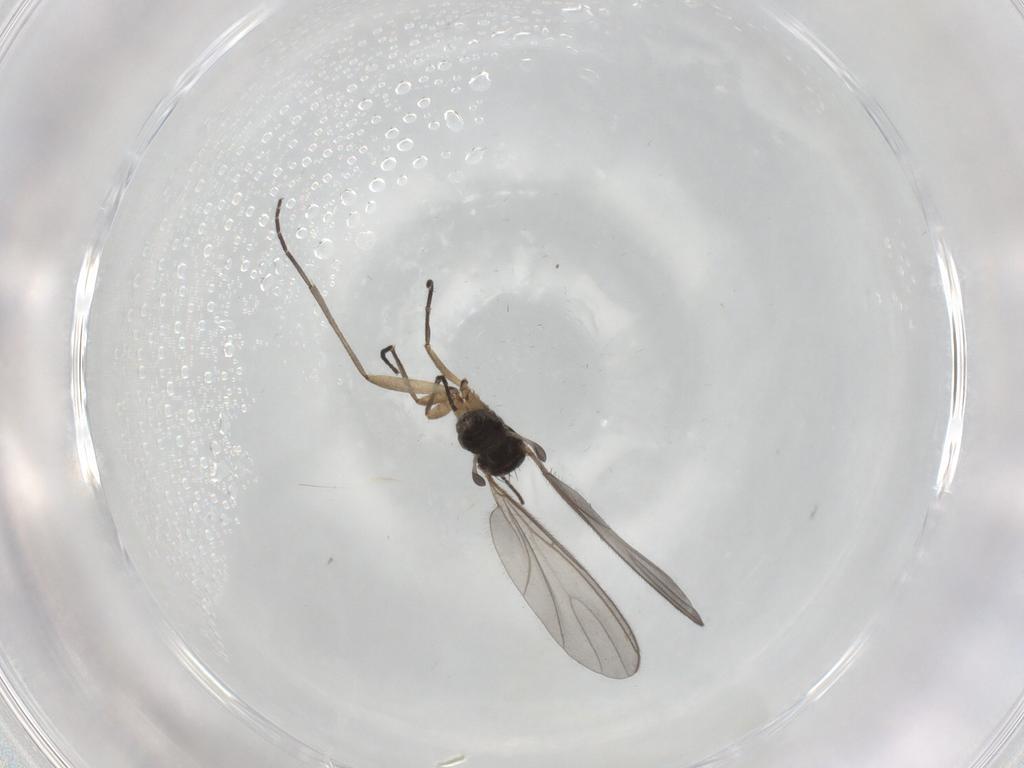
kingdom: Animalia
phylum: Arthropoda
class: Insecta
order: Diptera
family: Sciaridae
